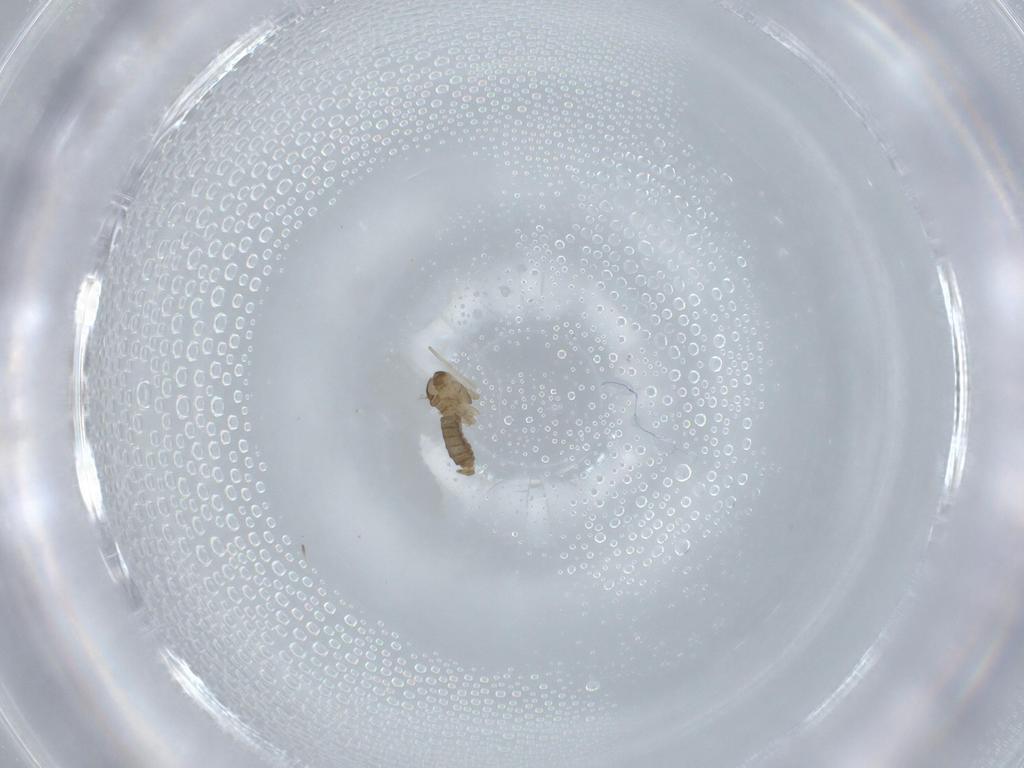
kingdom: Animalia
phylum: Arthropoda
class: Insecta
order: Diptera
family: Cecidomyiidae
